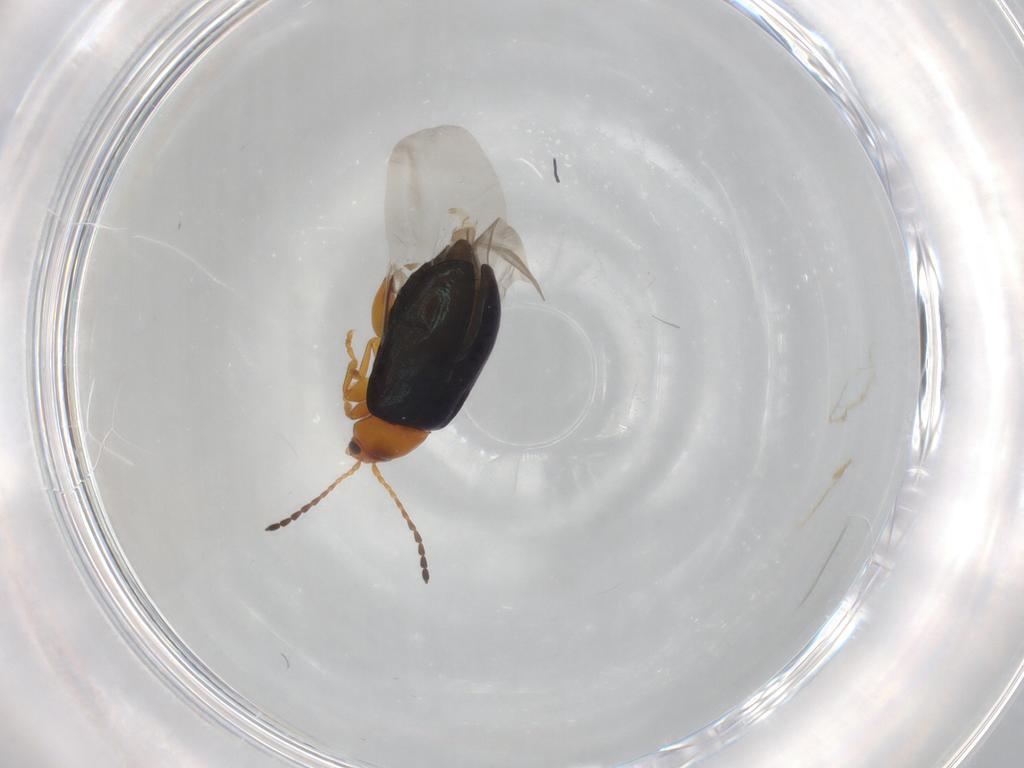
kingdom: Animalia
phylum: Arthropoda
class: Insecta
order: Coleoptera
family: Chrysomelidae
